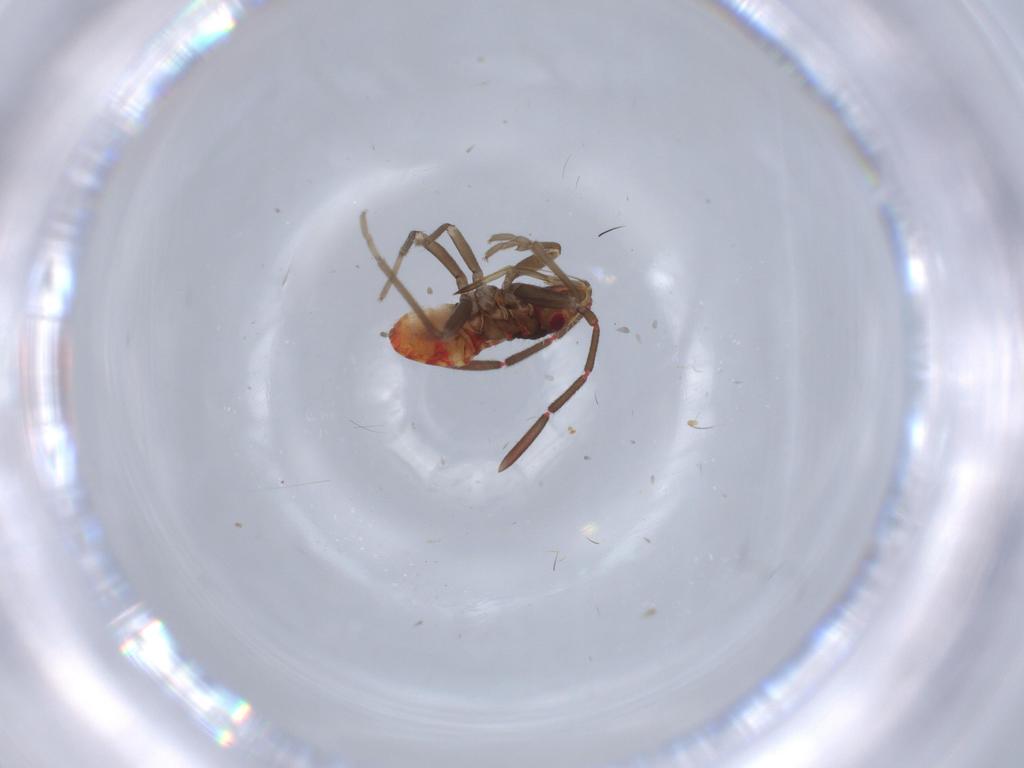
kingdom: Animalia
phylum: Arthropoda
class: Insecta
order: Hemiptera
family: Rhyparochromidae
